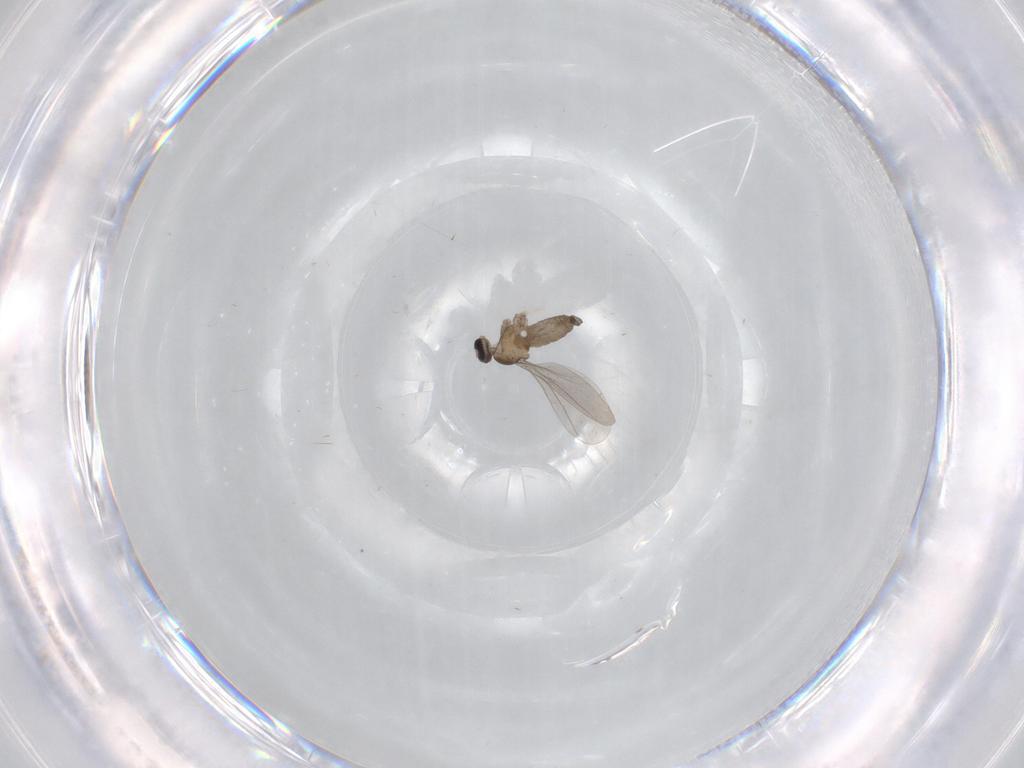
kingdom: Animalia
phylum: Arthropoda
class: Insecta
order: Diptera
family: Cecidomyiidae
